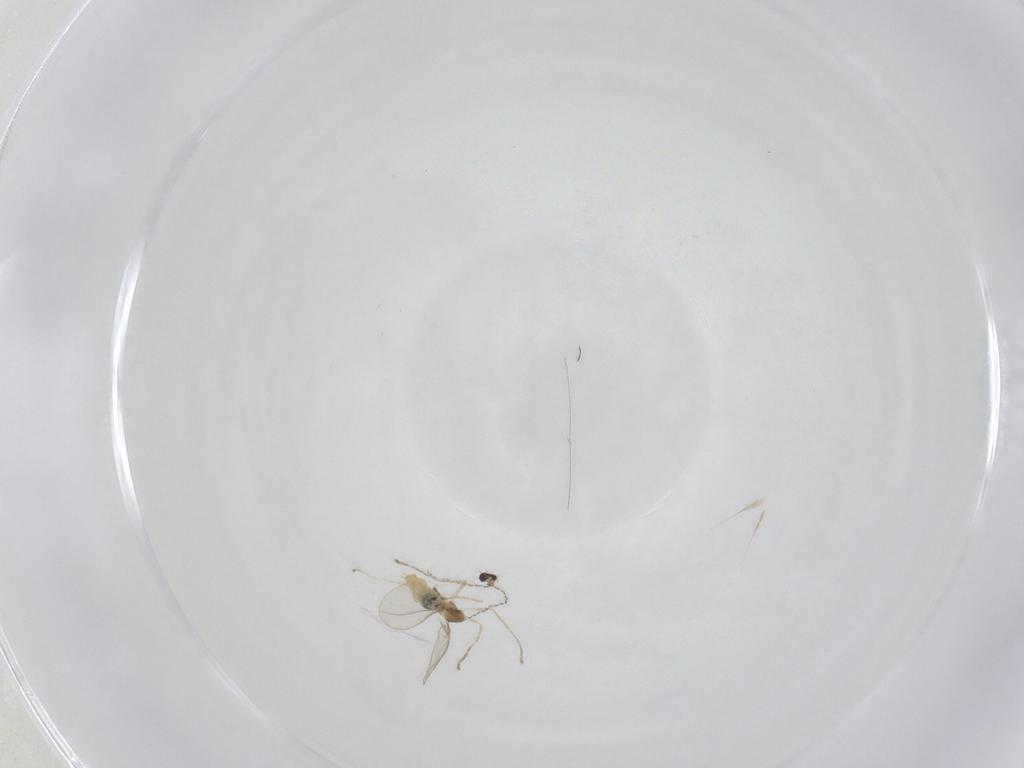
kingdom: Animalia
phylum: Arthropoda
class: Insecta
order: Diptera
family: Cecidomyiidae
